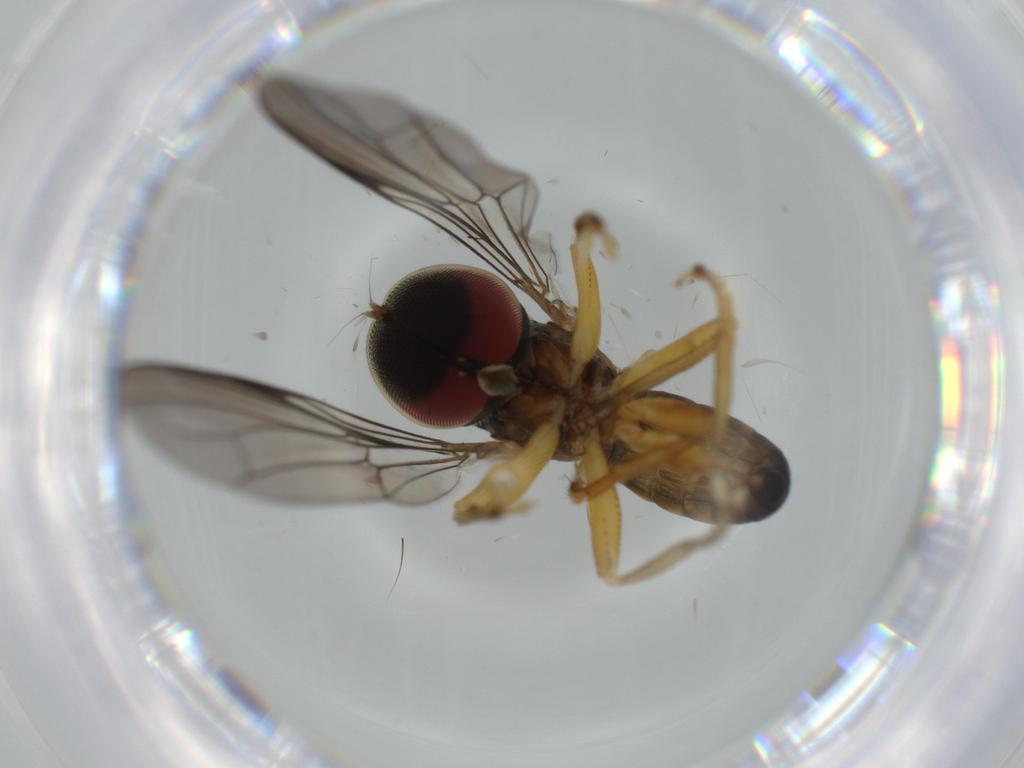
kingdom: Animalia
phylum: Arthropoda
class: Insecta
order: Diptera
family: Pipunculidae
